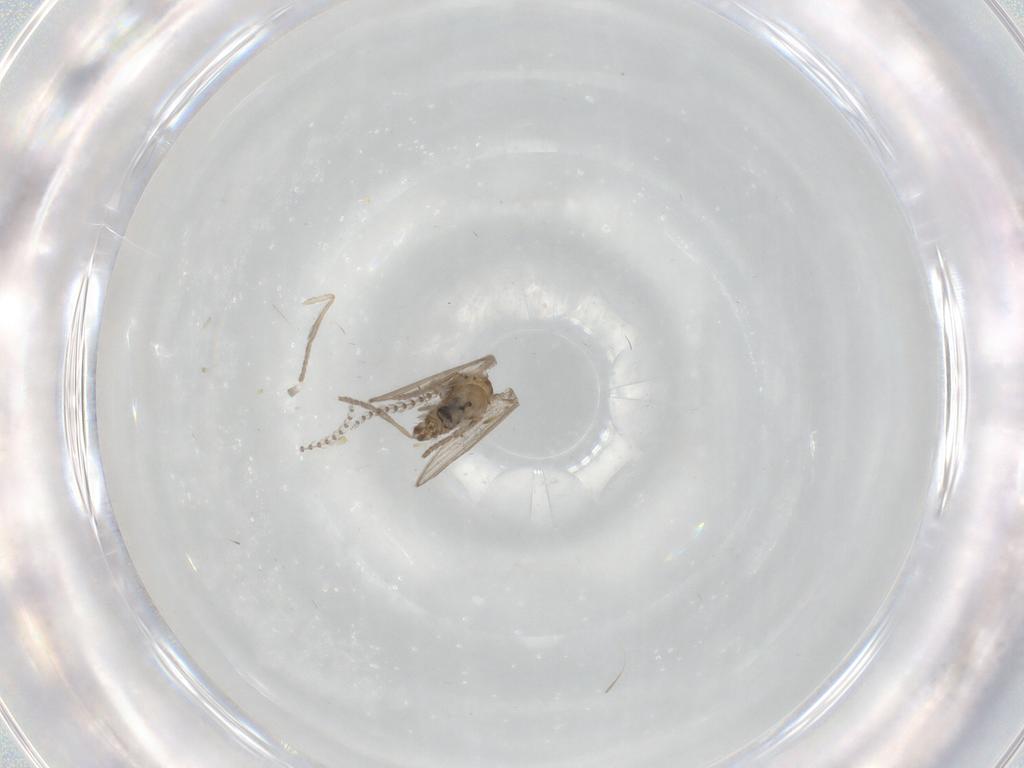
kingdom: Animalia
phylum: Arthropoda
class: Insecta
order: Diptera
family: Psychodidae
